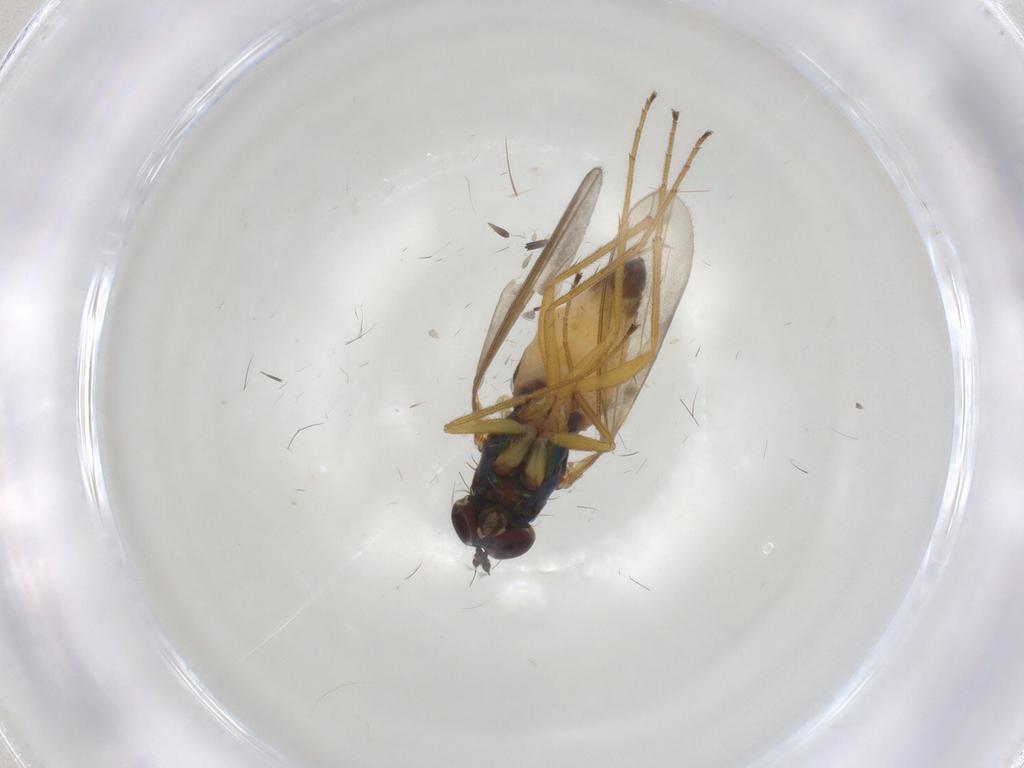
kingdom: Animalia
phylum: Arthropoda
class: Insecta
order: Diptera
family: Dolichopodidae
